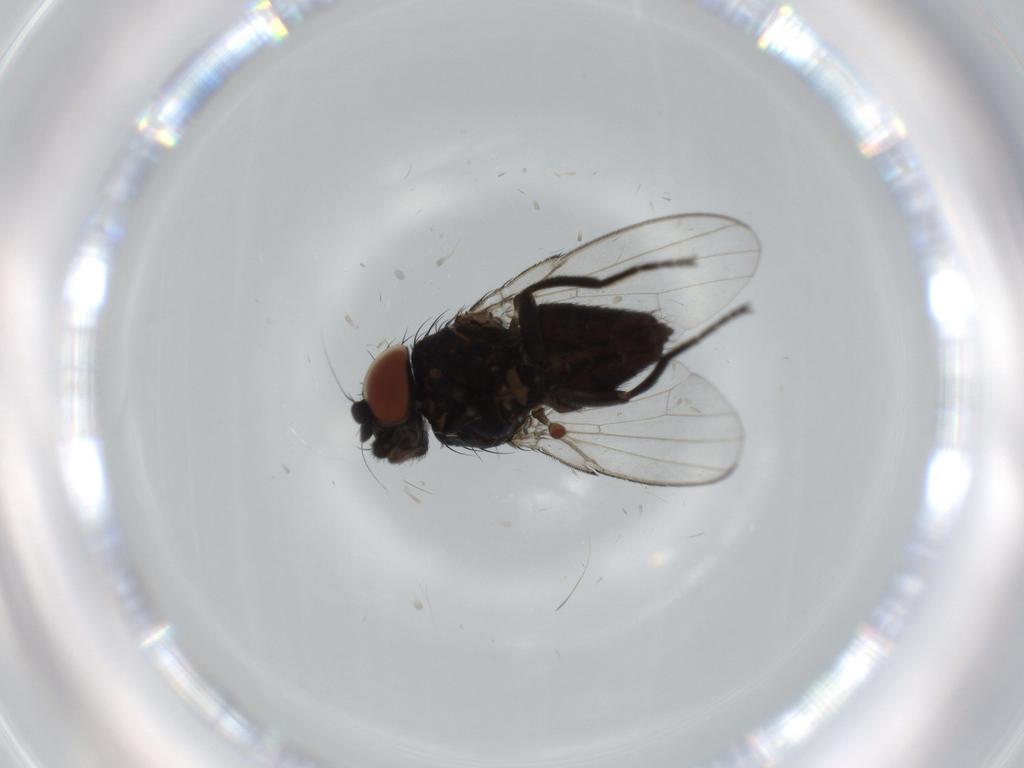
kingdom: Animalia
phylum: Arthropoda
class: Insecta
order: Diptera
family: Milichiidae
